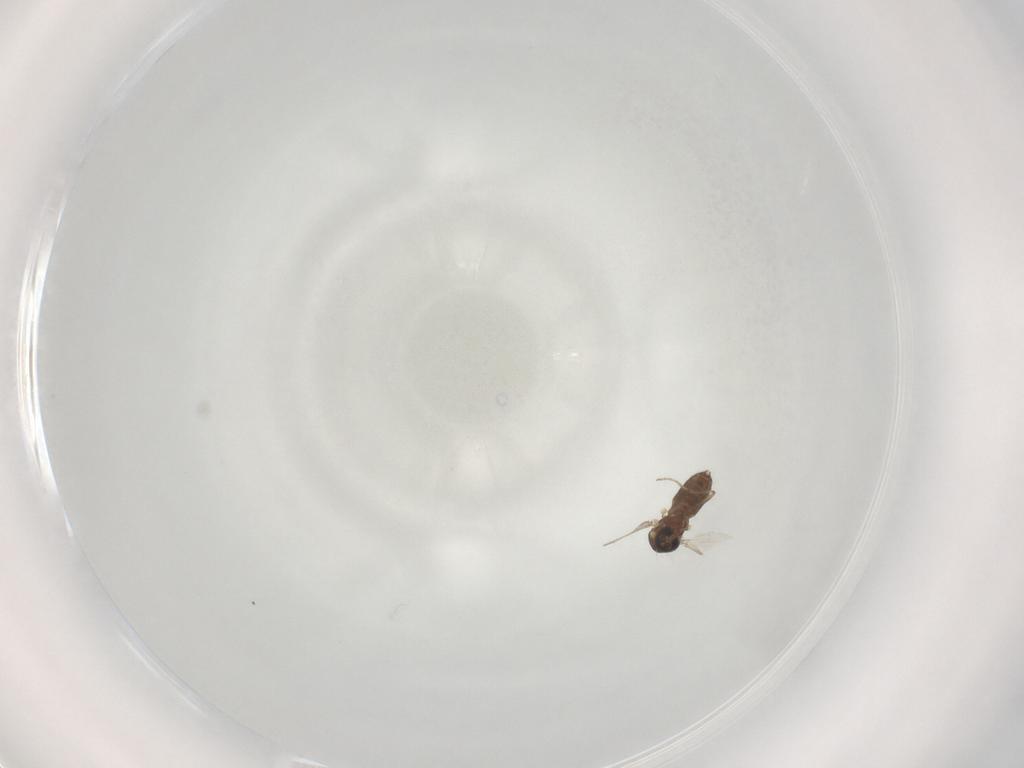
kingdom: Animalia
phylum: Arthropoda
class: Insecta
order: Diptera
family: Ceratopogonidae
